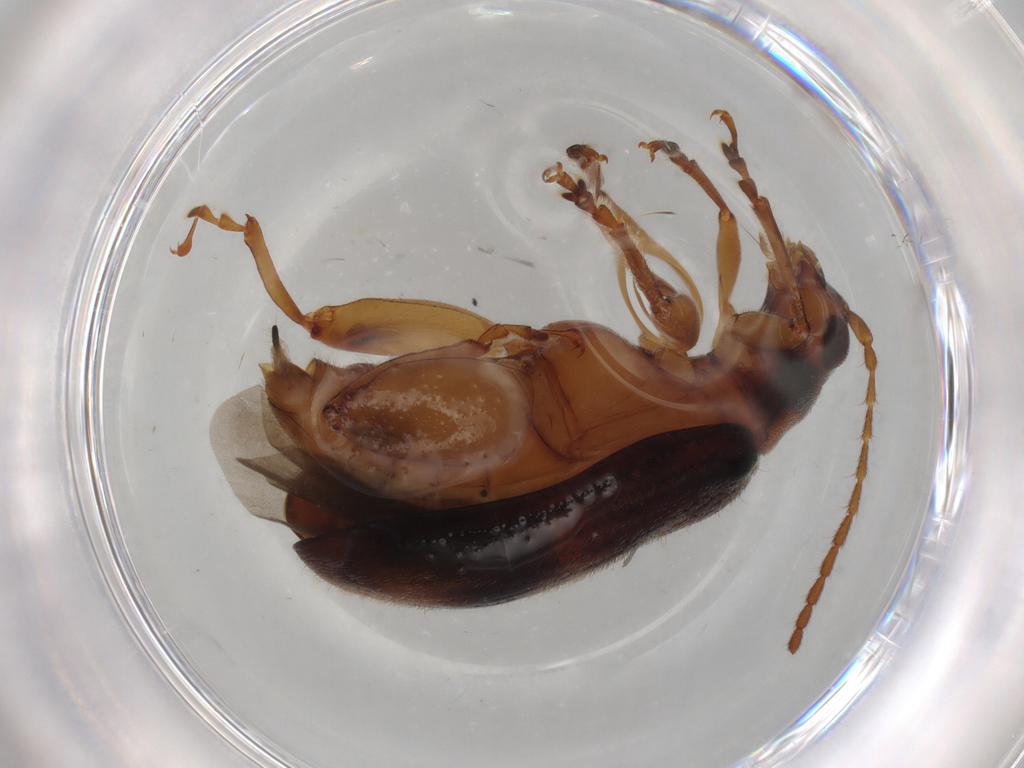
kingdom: Animalia
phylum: Arthropoda
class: Insecta
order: Coleoptera
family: Chrysomelidae
